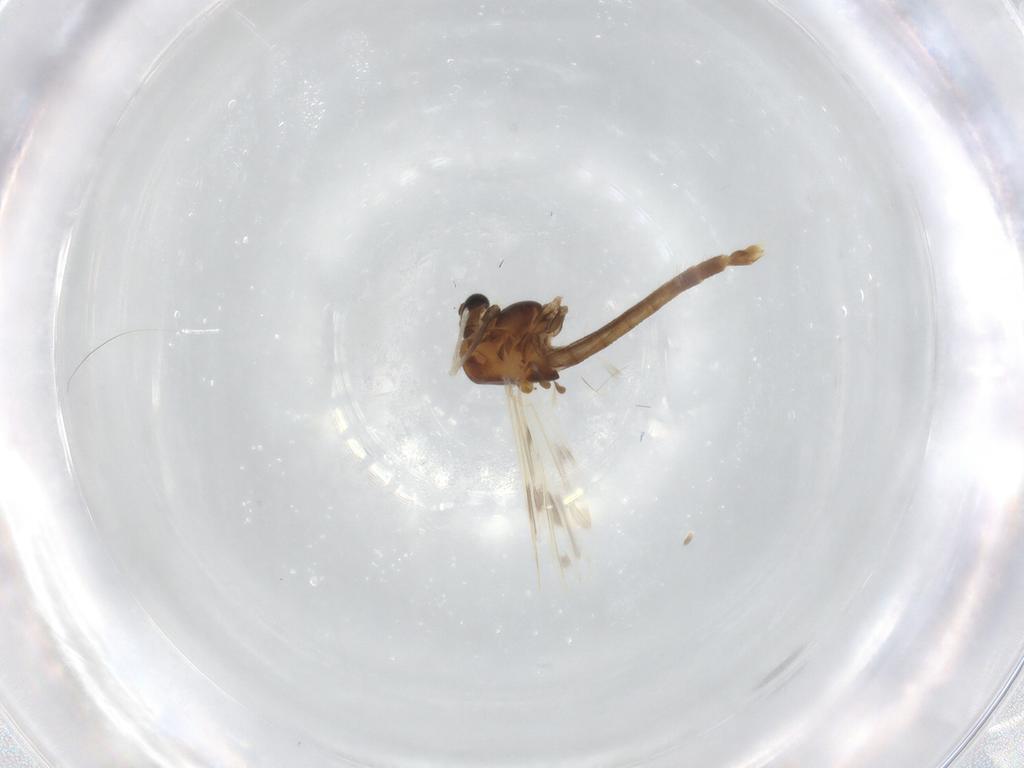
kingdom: Animalia
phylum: Arthropoda
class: Insecta
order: Diptera
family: Chironomidae
